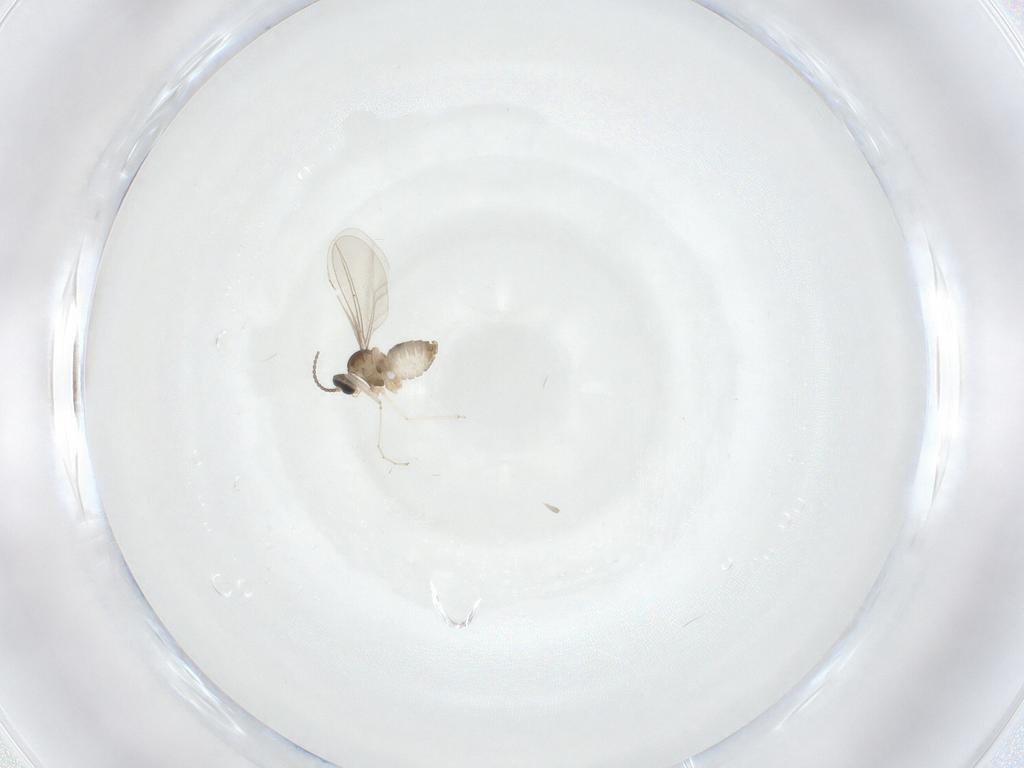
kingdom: Animalia
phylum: Arthropoda
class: Insecta
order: Diptera
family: Cecidomyiidae
